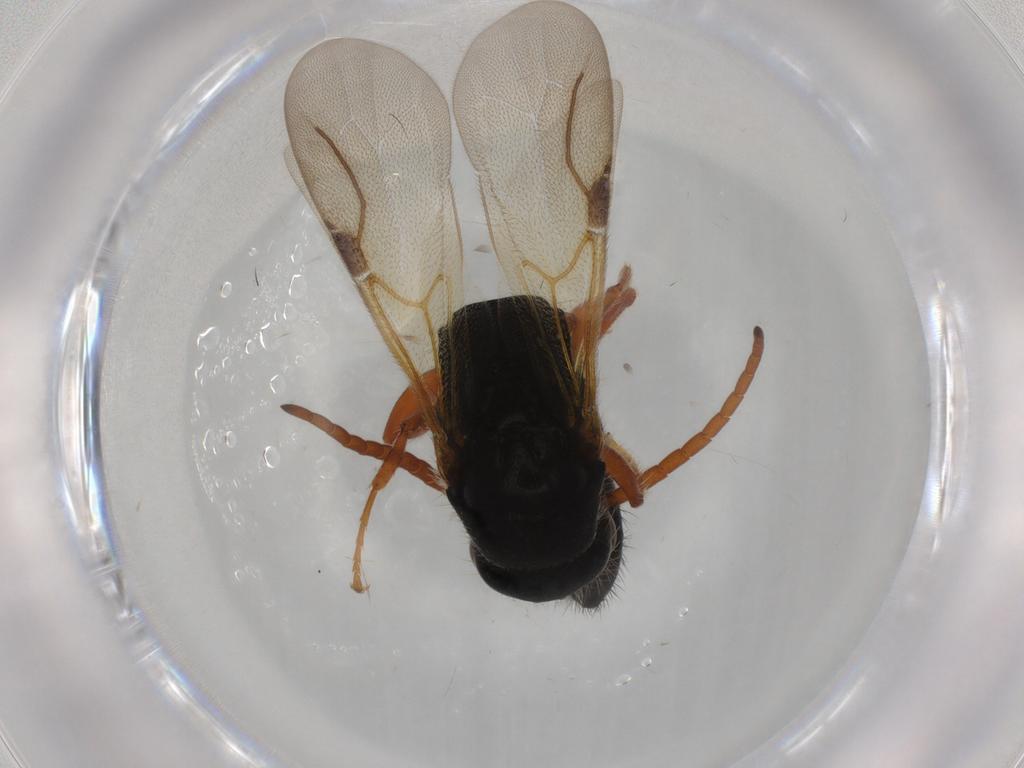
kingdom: Animalia
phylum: Arthropoda
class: Insecta
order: Hymenoptera
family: Bethylidae
